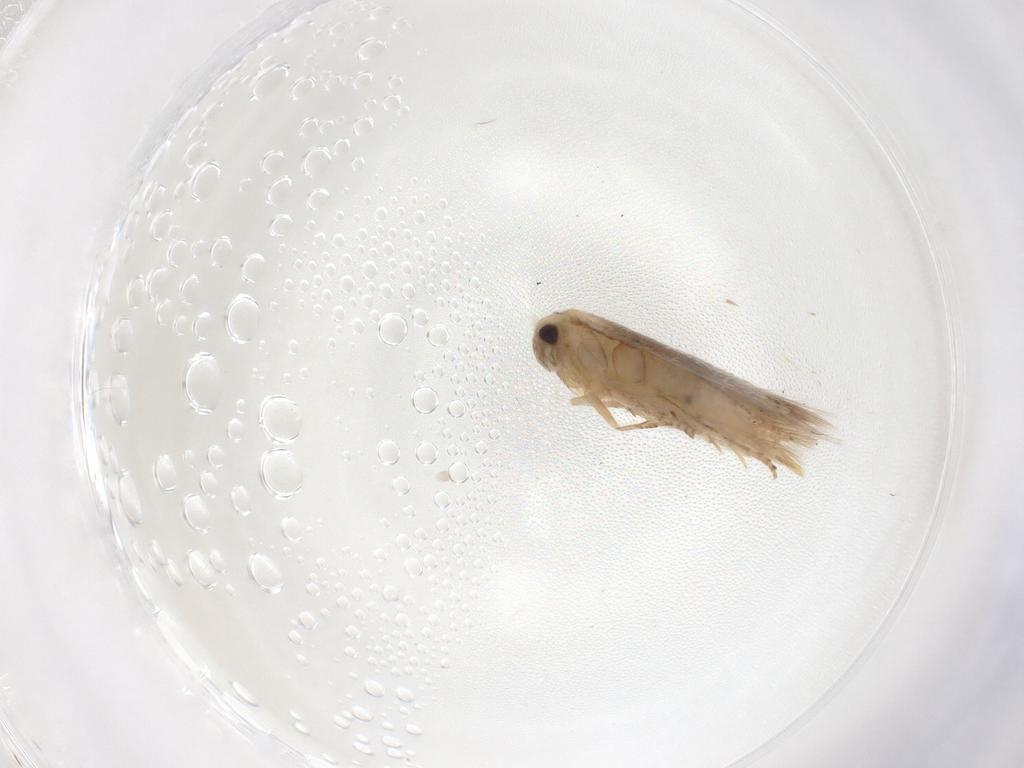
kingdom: Animalia
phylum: Arthropoda
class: Insecta
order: Lepidoptera
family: Bucculatricidae
